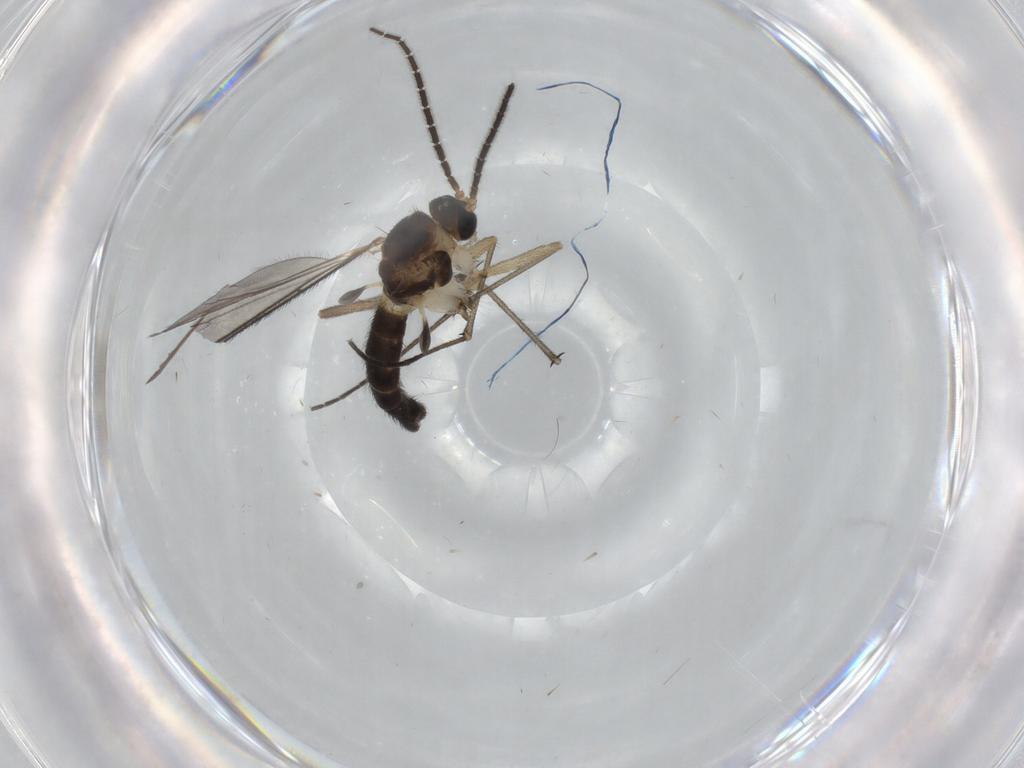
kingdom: Animalia
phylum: Arthropoda
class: Insecta
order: Diptera
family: Sciaridae
